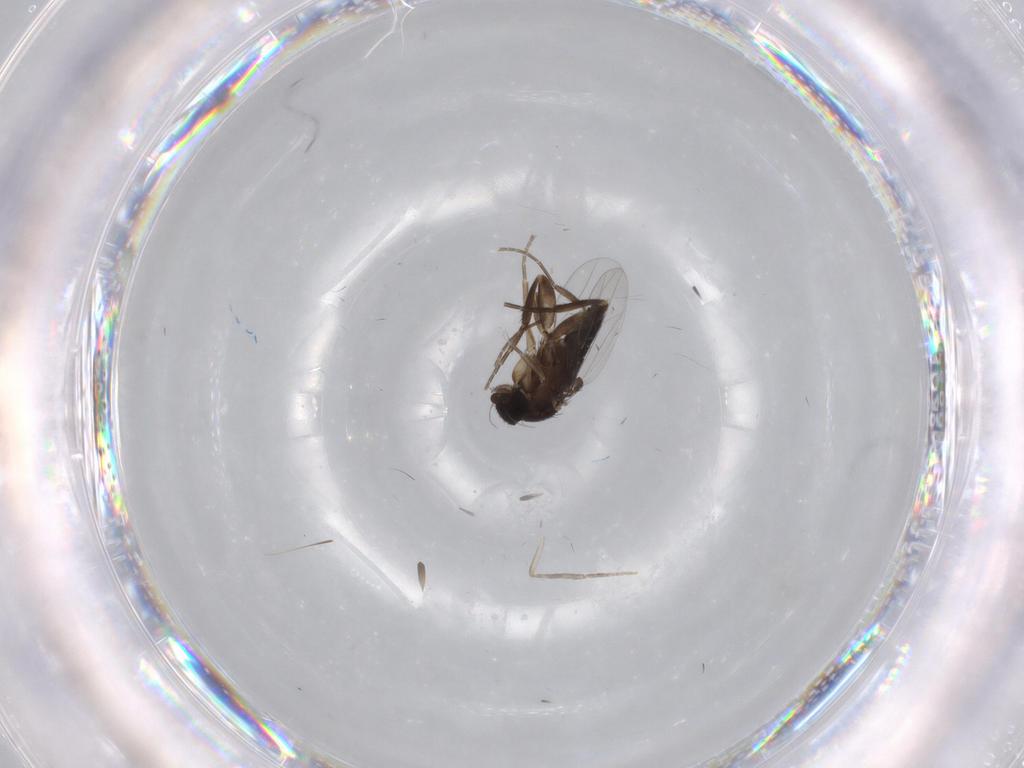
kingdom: Animalia
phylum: Arthropoda
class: Insecta
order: Diptera
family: Phoridae
